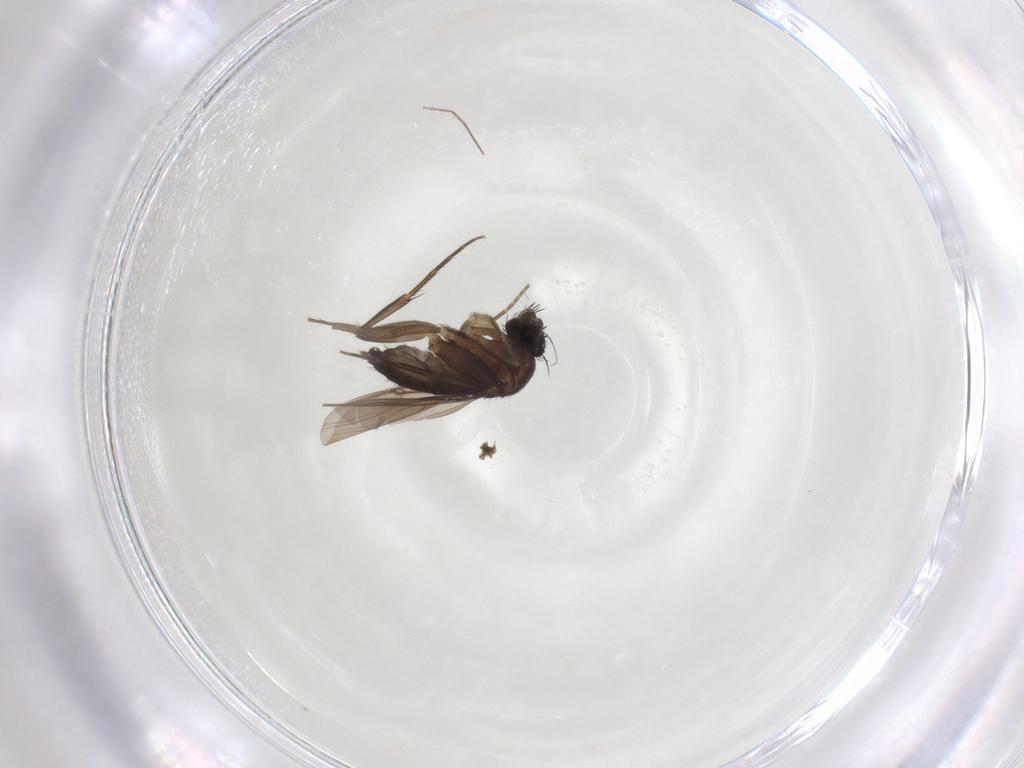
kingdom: Animalia
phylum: Arthropoda
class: Insecta
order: Diptera
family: Phoridae
